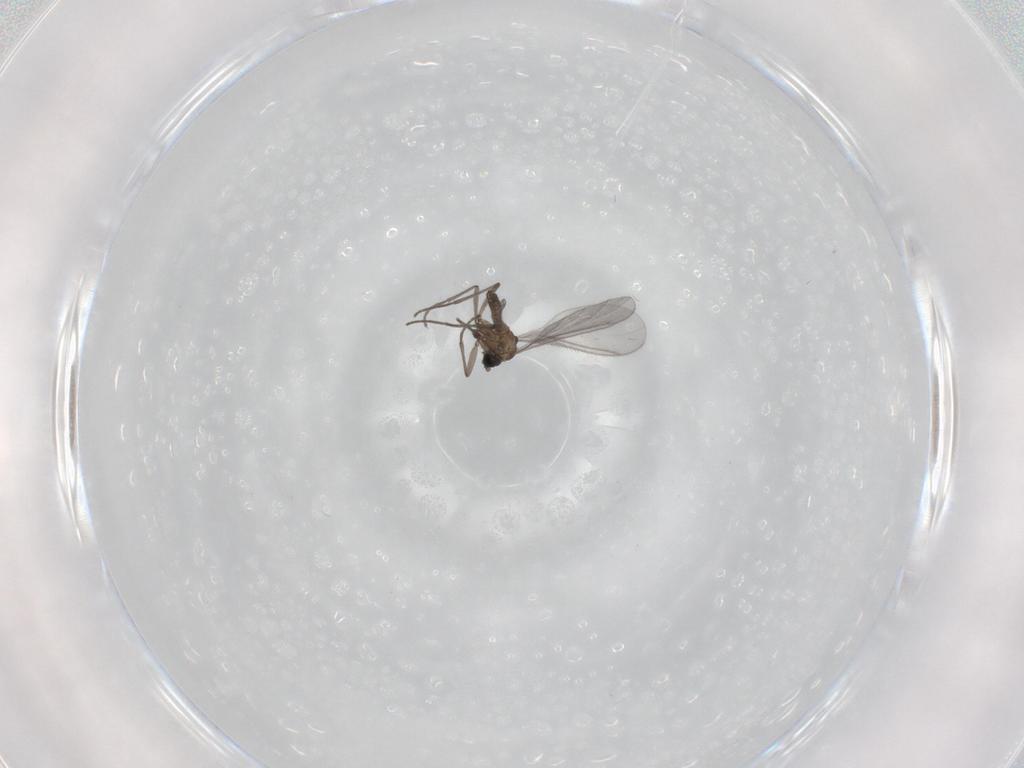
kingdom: Animalia
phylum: Arthropoda
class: Insecta
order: Diptera
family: Sciaridae
